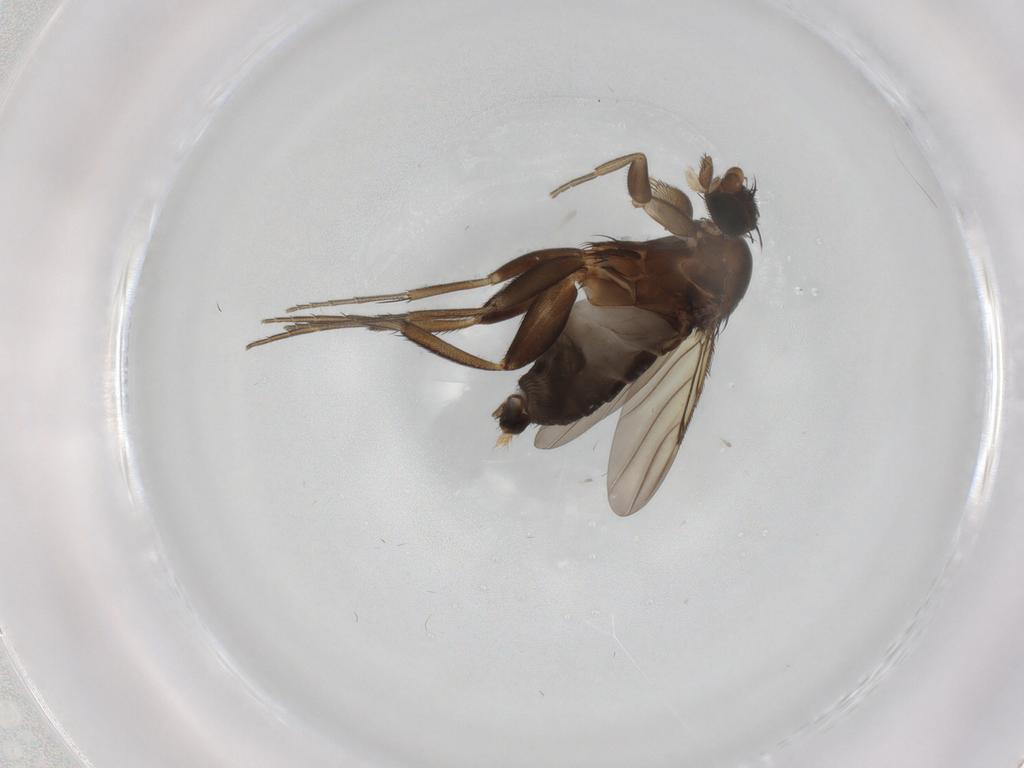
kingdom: Animalia
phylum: Arthropoda
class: Insecta
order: Diptera
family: Phoridae
